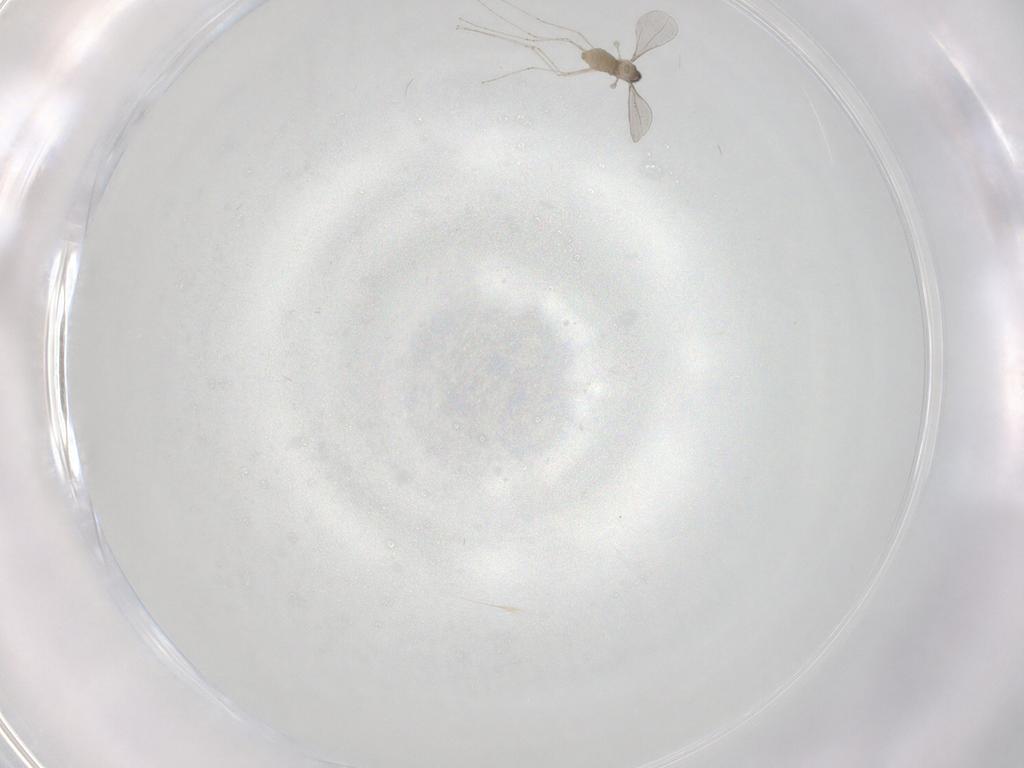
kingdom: Animalia
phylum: Arthropoda
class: Insecta
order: Diptera
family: Cecidomyiidae
